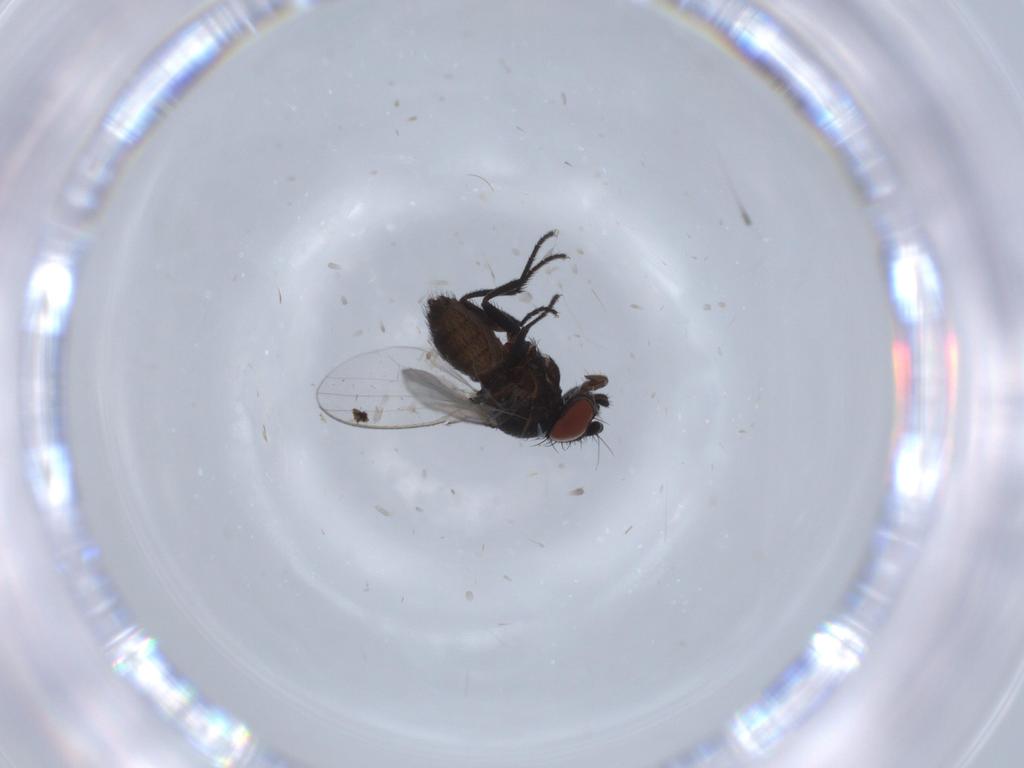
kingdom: Animalia
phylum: Arthropoda
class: Insecta
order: Diptera
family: Milichiidae
